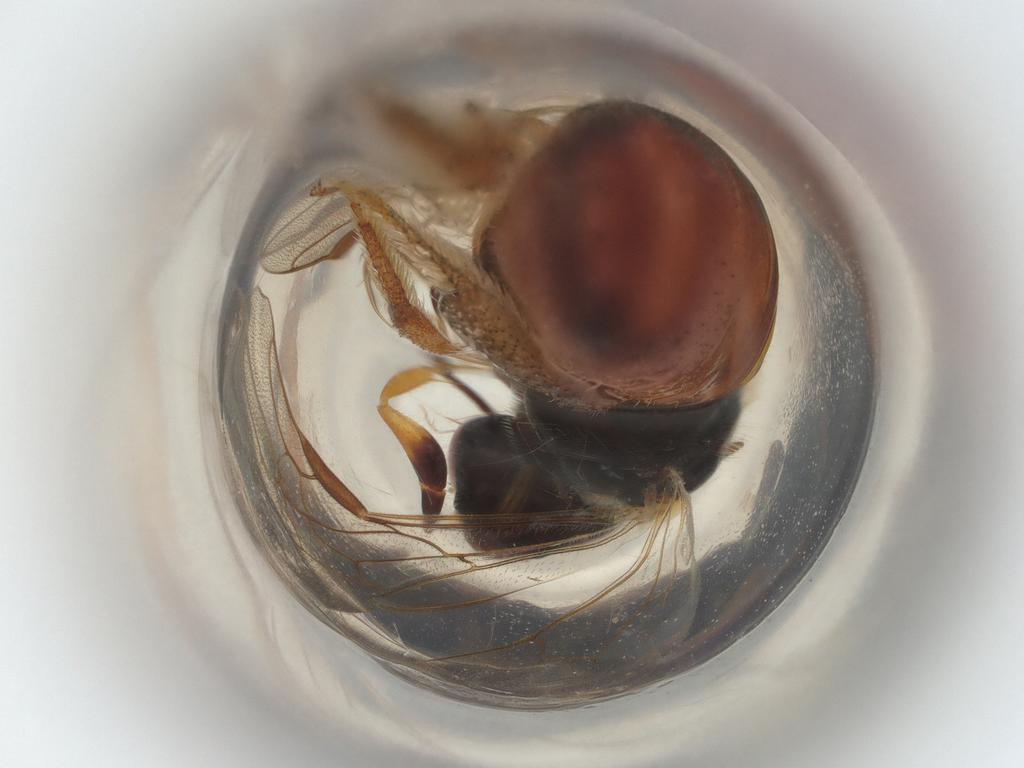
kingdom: Animalia
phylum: Arthropoda
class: Insecta
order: Hymenoptera
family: Apidae
